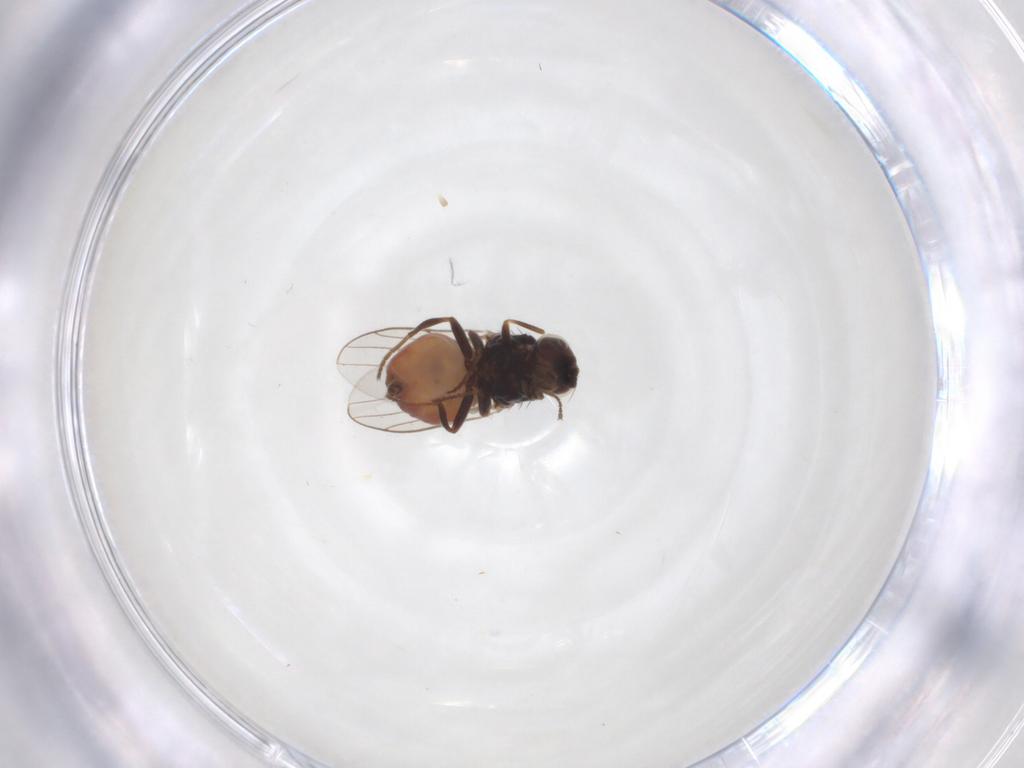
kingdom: Animalia
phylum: Arthropoda
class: Insecta
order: Diptera
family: Chloropidae
